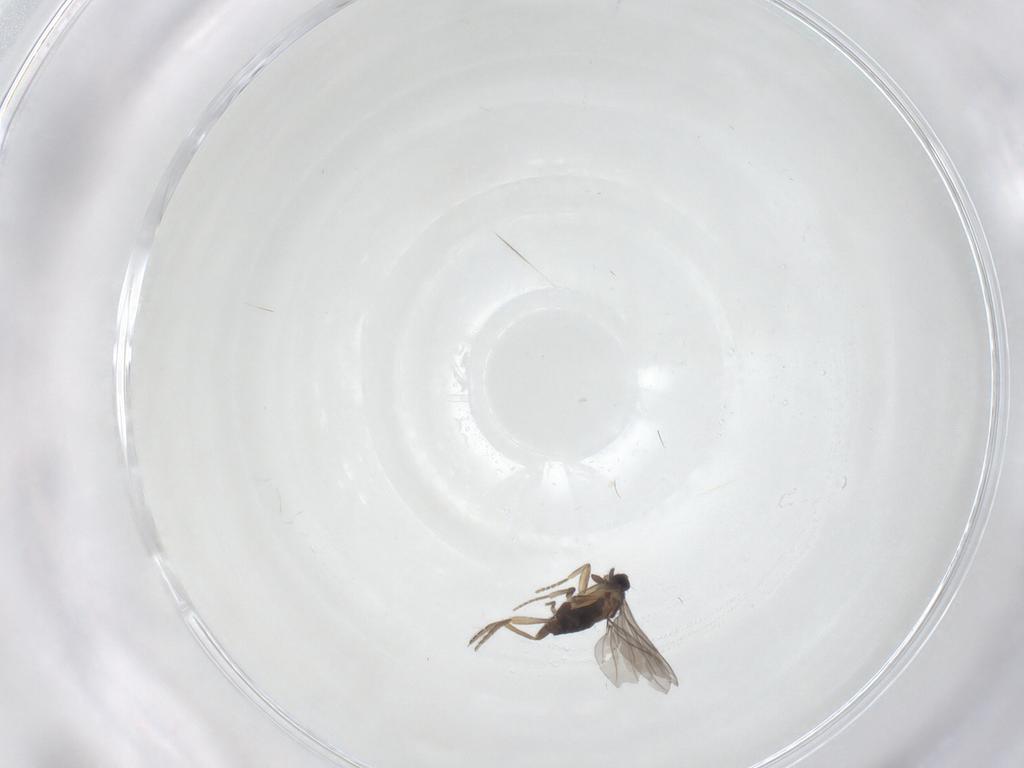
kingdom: Animalia
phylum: Arthropoda
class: Insecta
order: Diptera
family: Phoridae
